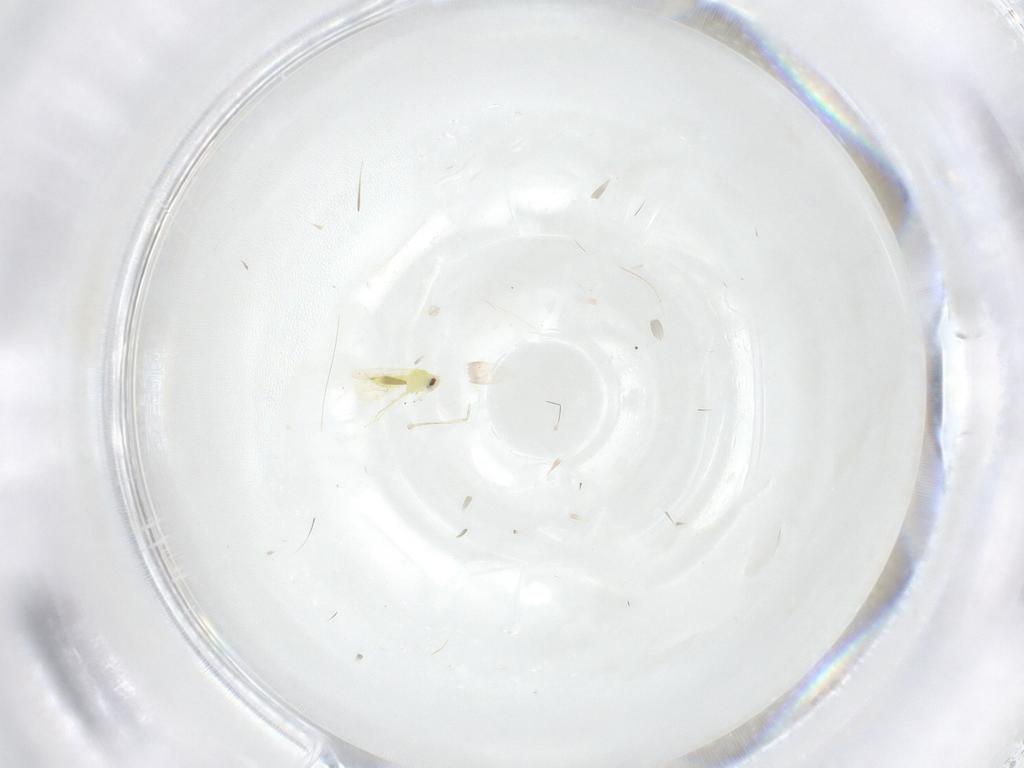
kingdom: Animalia
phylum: Arthropoda
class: Insecta
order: Hemiptera
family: Aleyrodidae
